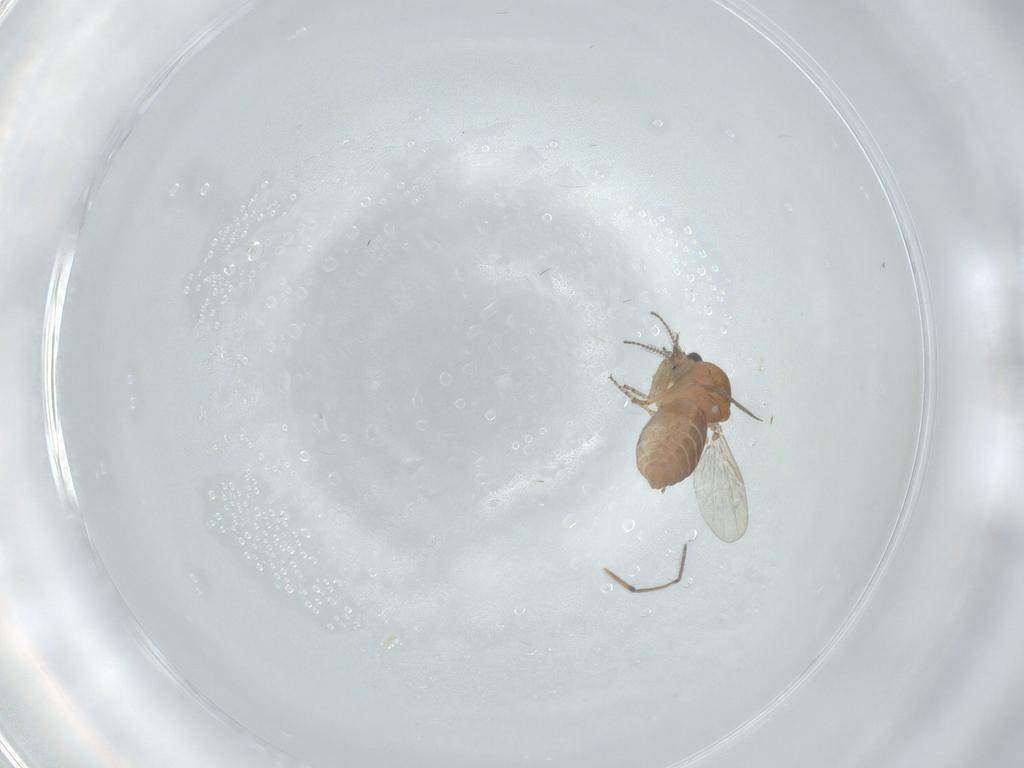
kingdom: Animalia
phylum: Arthropoda
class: Insecta
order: Diptera
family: Ceratopogonidae
